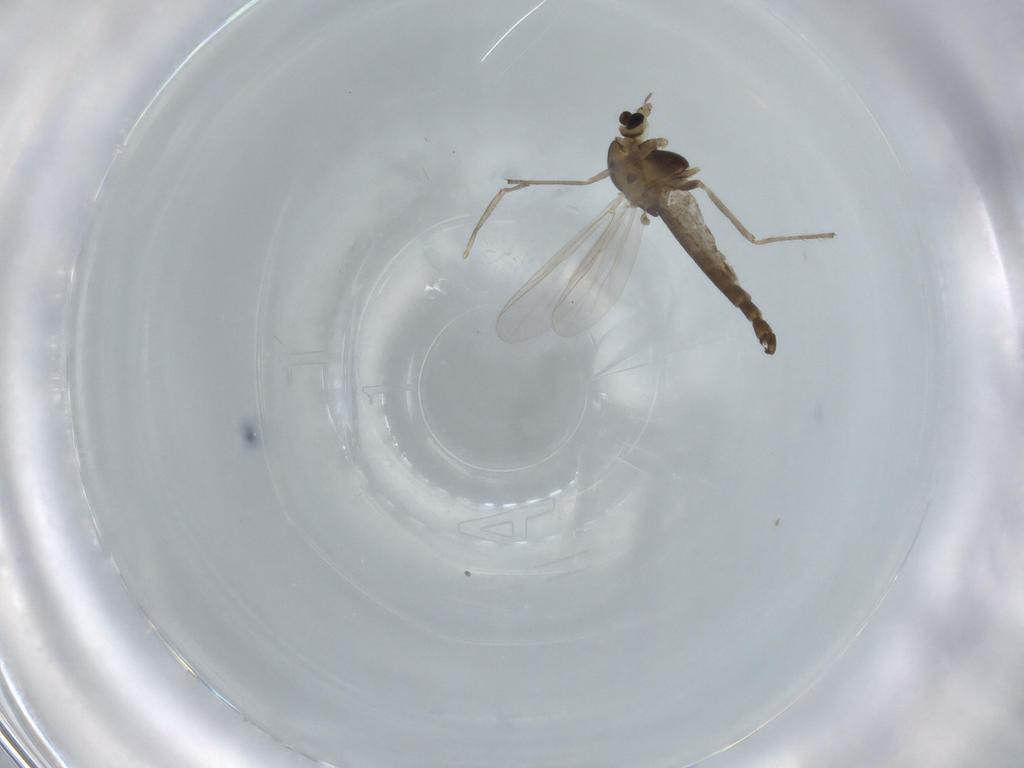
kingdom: Animalia
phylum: Arthropoda
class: Insecta
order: Diptera
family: Chironomidae
